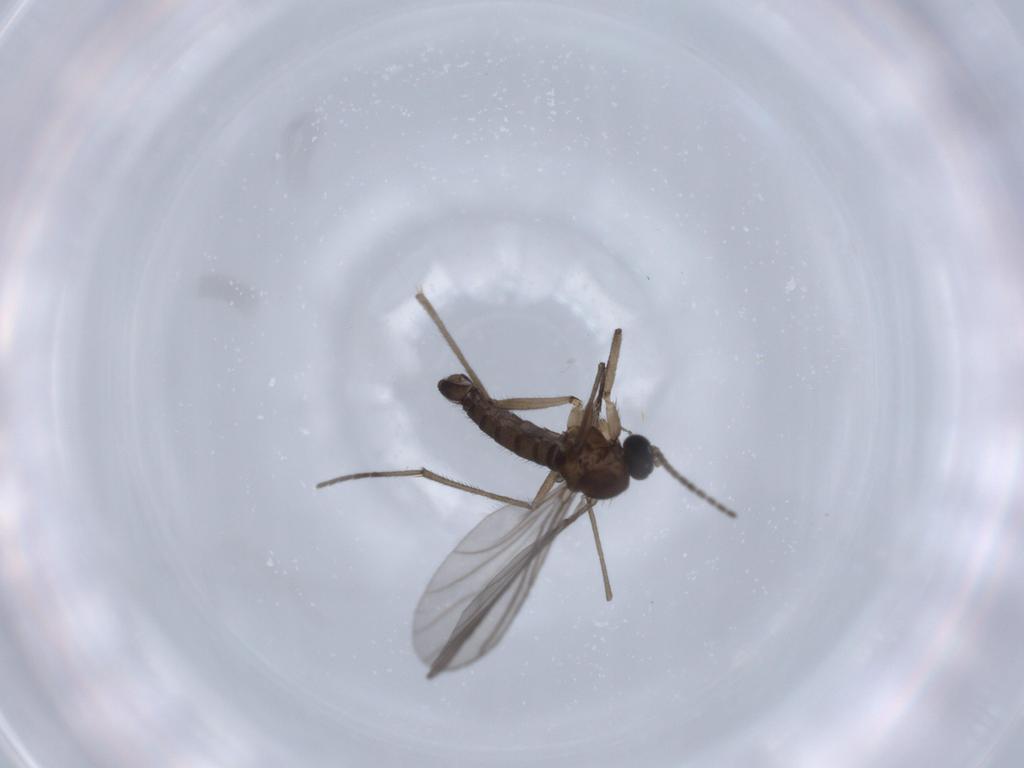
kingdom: Animalia
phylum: Arthropoda
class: Insecta
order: Diptera
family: Sciaridae
